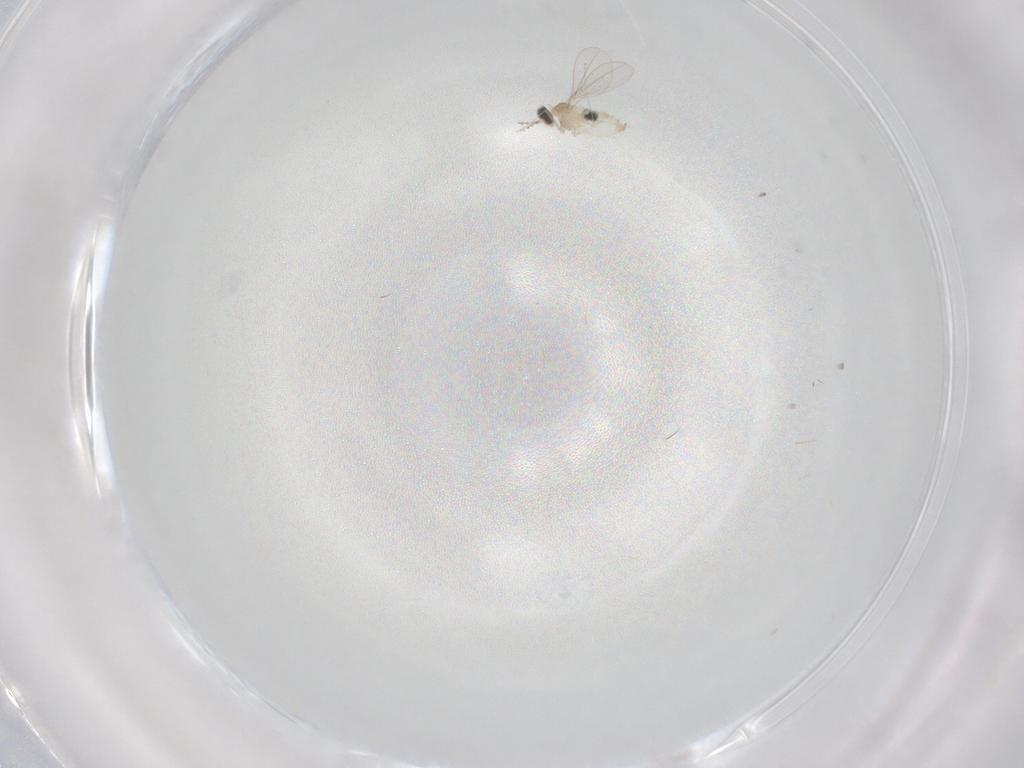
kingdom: Animalia
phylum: Arthropoda
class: Insecta
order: Diptera
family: Cecidomyiidae
